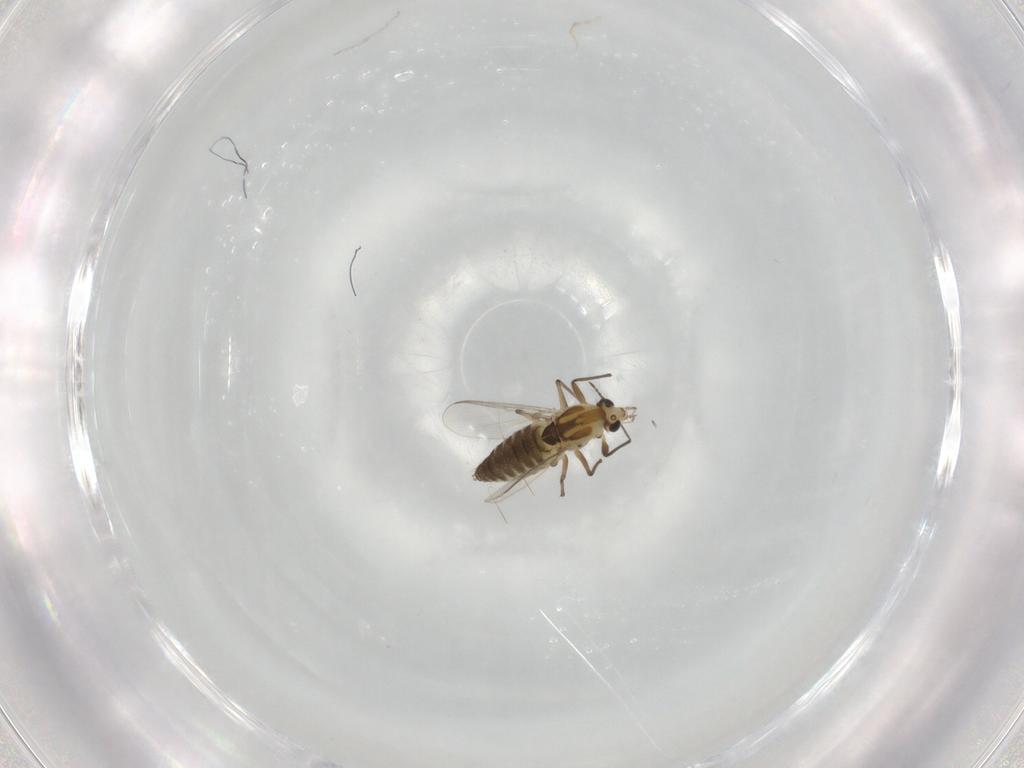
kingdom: Animalia
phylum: Arthropoda
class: Insecta
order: Diptera
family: Chironomidae
